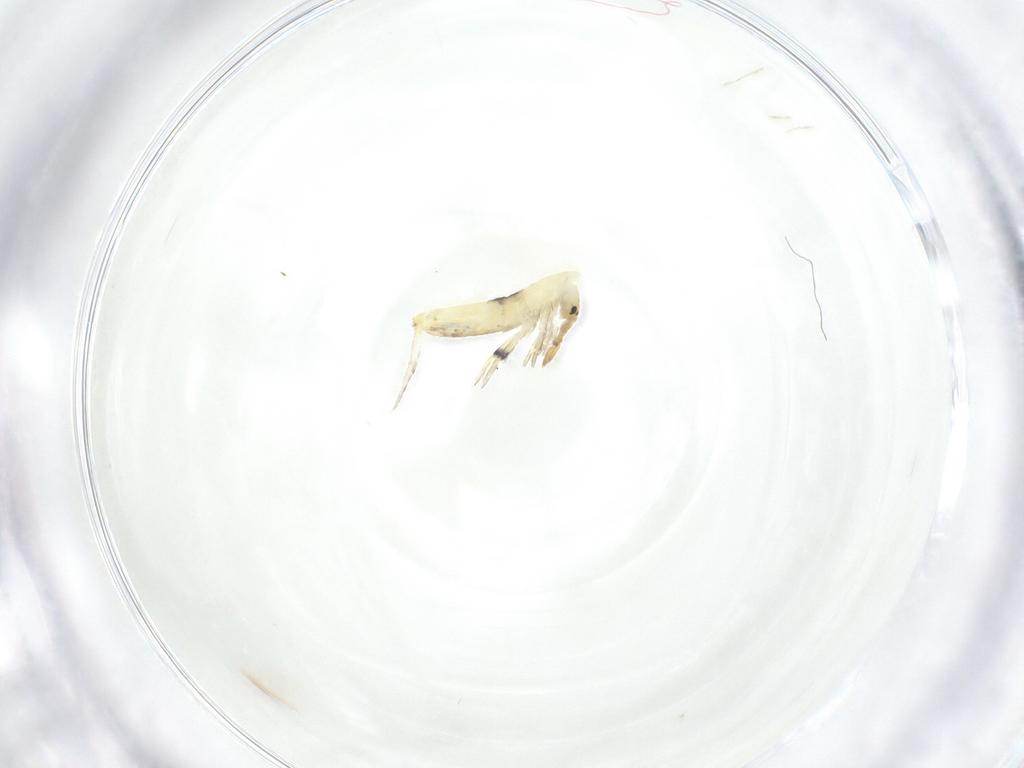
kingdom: Animalia
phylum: Arthropoda
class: Collembola
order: Entomobryomorpha
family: Entomobryidae
